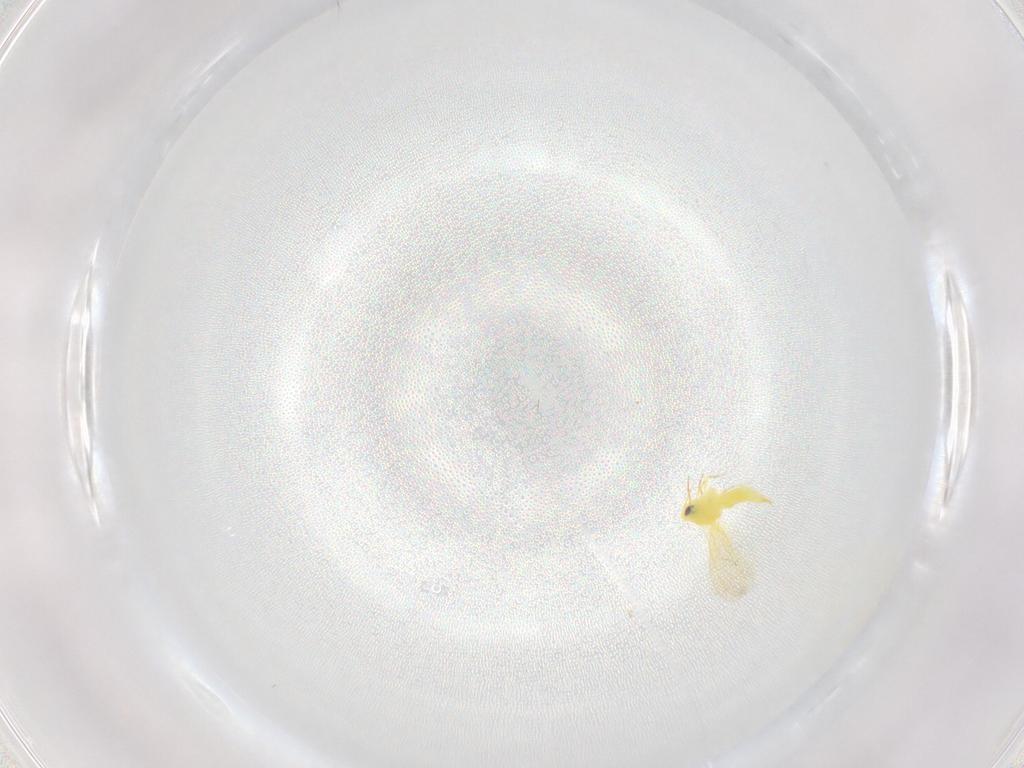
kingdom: Animalia
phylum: Arthropoda
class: Insecta
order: Hemiptera
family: Aleyrodidae
